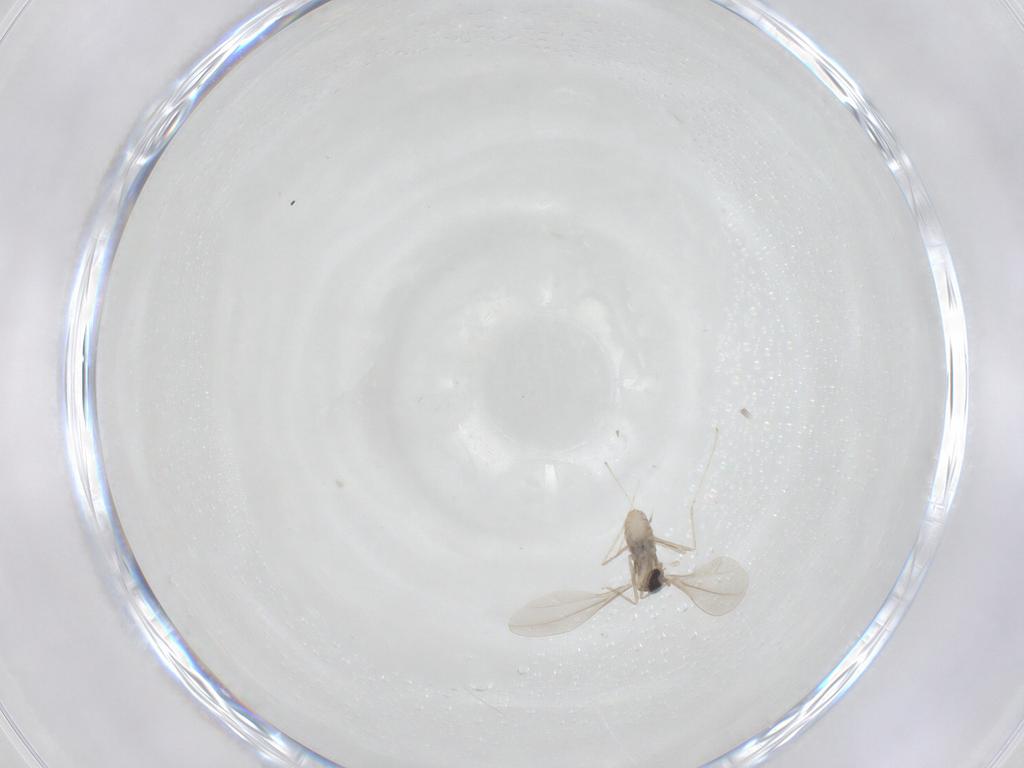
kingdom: Animalia
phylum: Arthropoda
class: Insecta
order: Diptera
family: Cecidomyiidae
